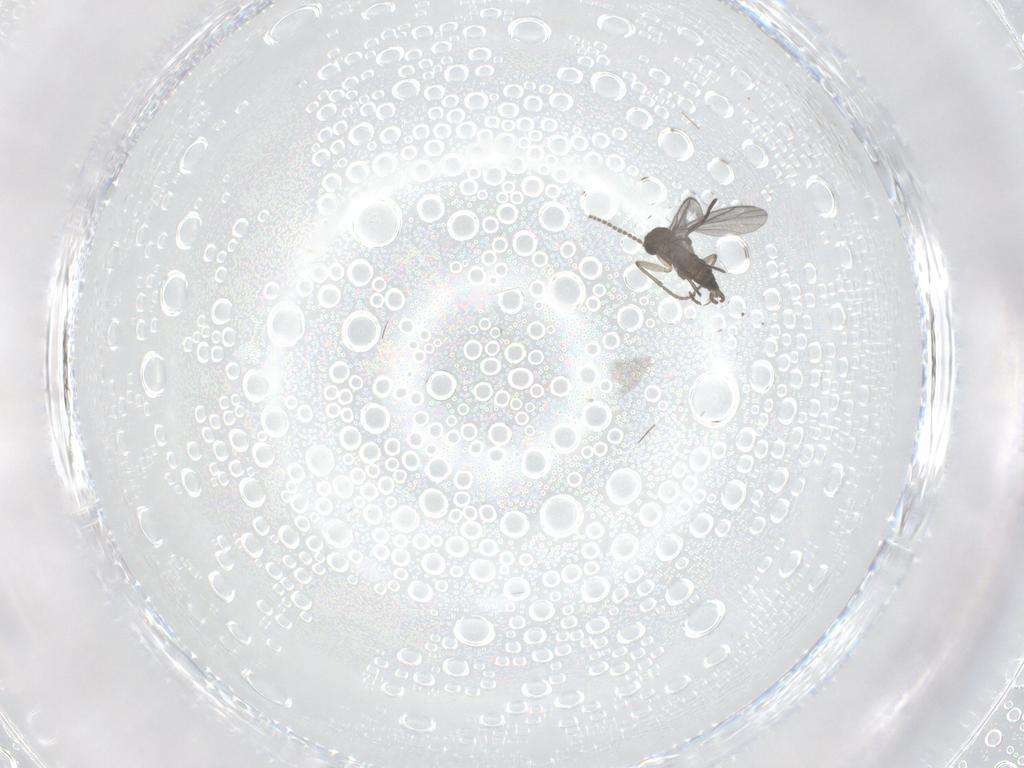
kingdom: Animalia
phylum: Arthropoda
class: Insecta
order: Diptera
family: Sciaridae
